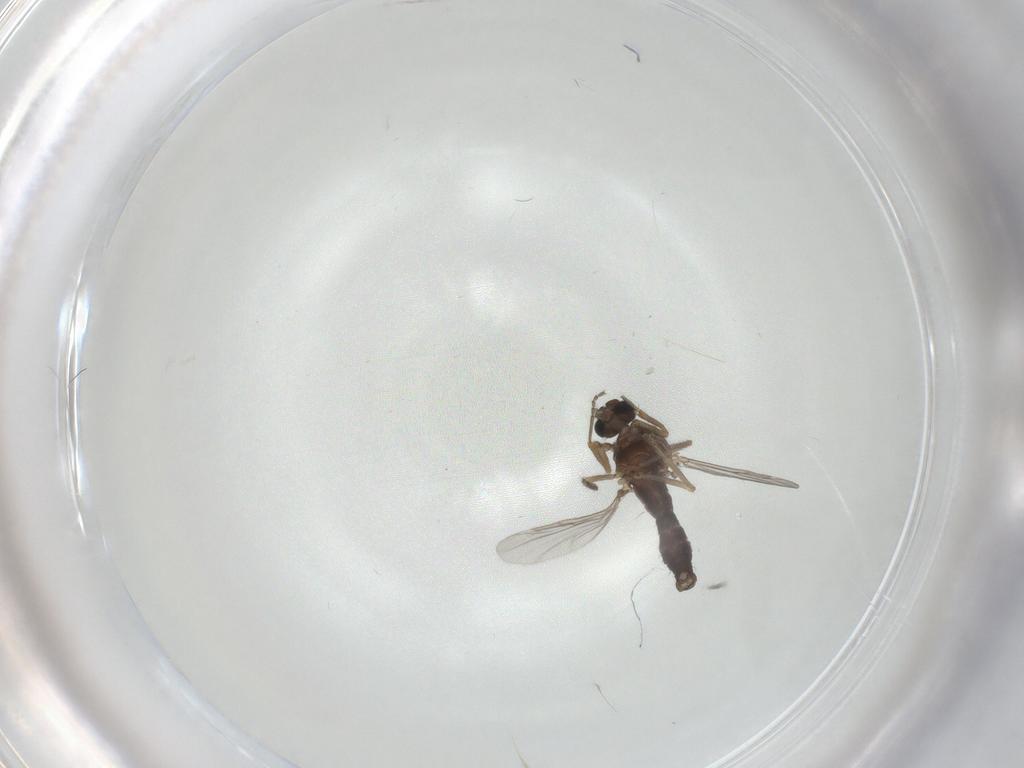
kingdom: Animalia
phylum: Arthropoda
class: Insecta
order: Diptera
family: Ceratopogonidae
